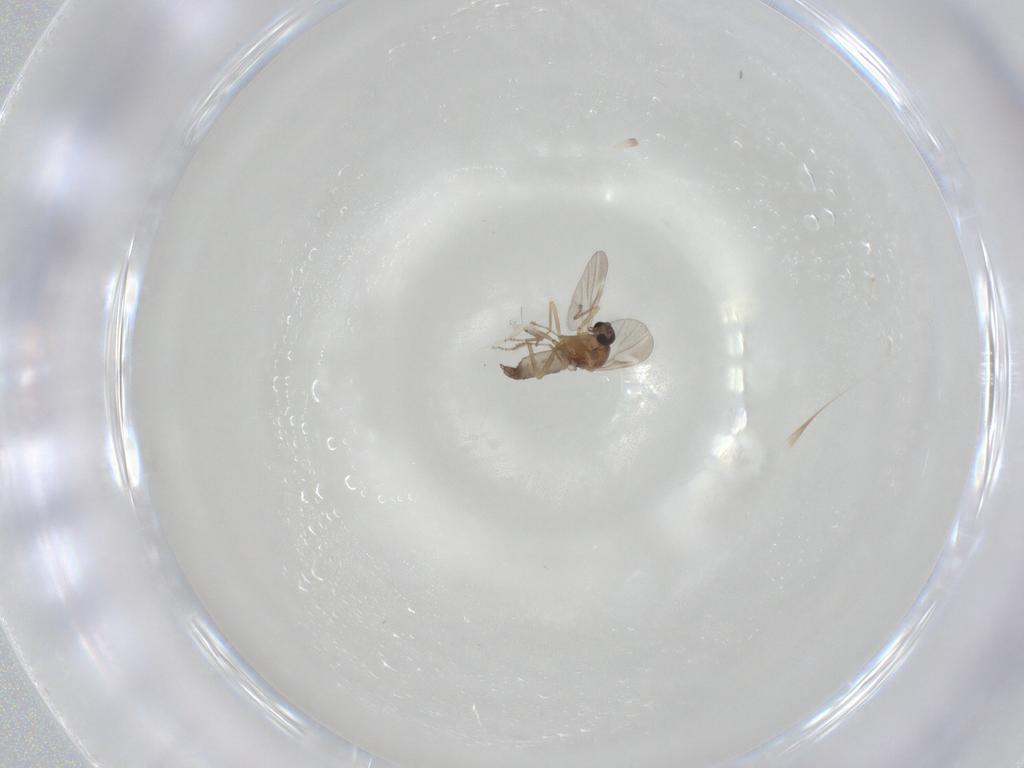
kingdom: Animalia
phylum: Arthropoda
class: Insecta
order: Diptera
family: Ceratopogonidae
